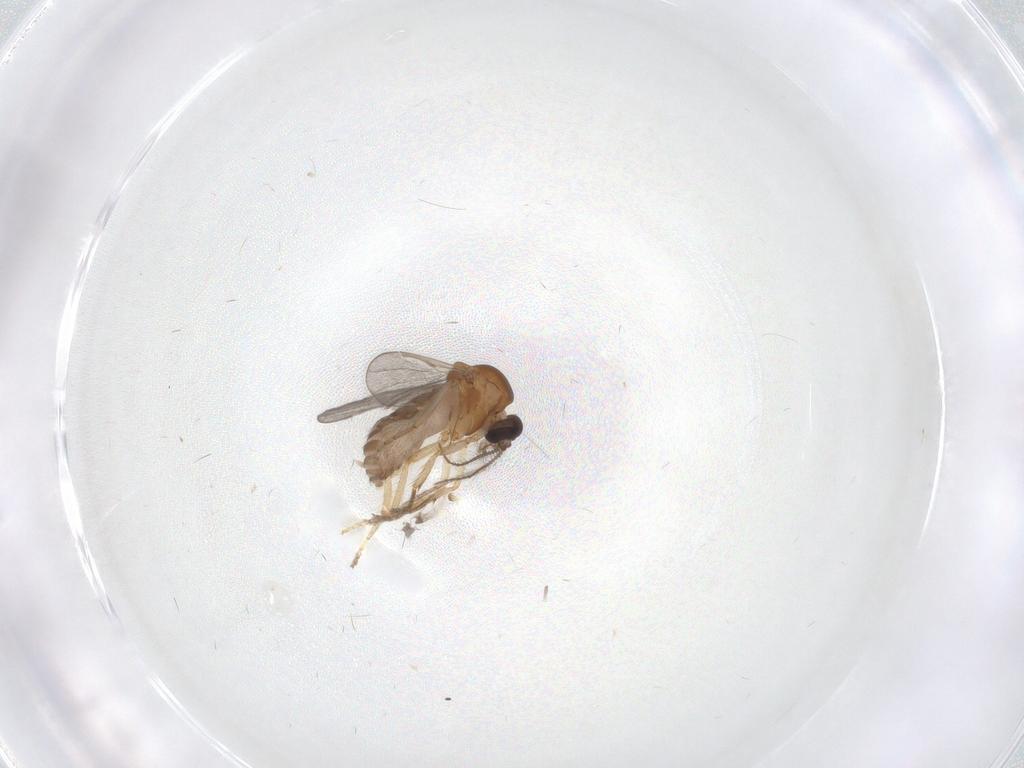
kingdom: Animalia
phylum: Arthropoda
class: Insecta
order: Diptera
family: Ceratopogonidae
